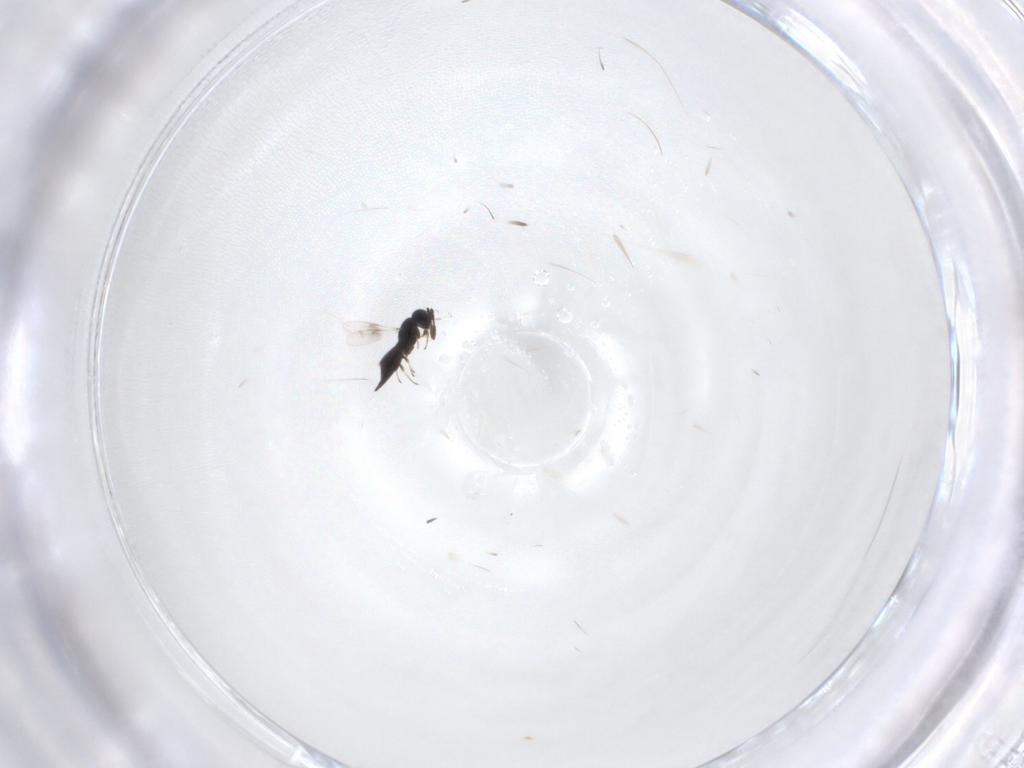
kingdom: Animalia
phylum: Arthropoda
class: Insecta
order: Hymenoptera
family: Scelionidae
